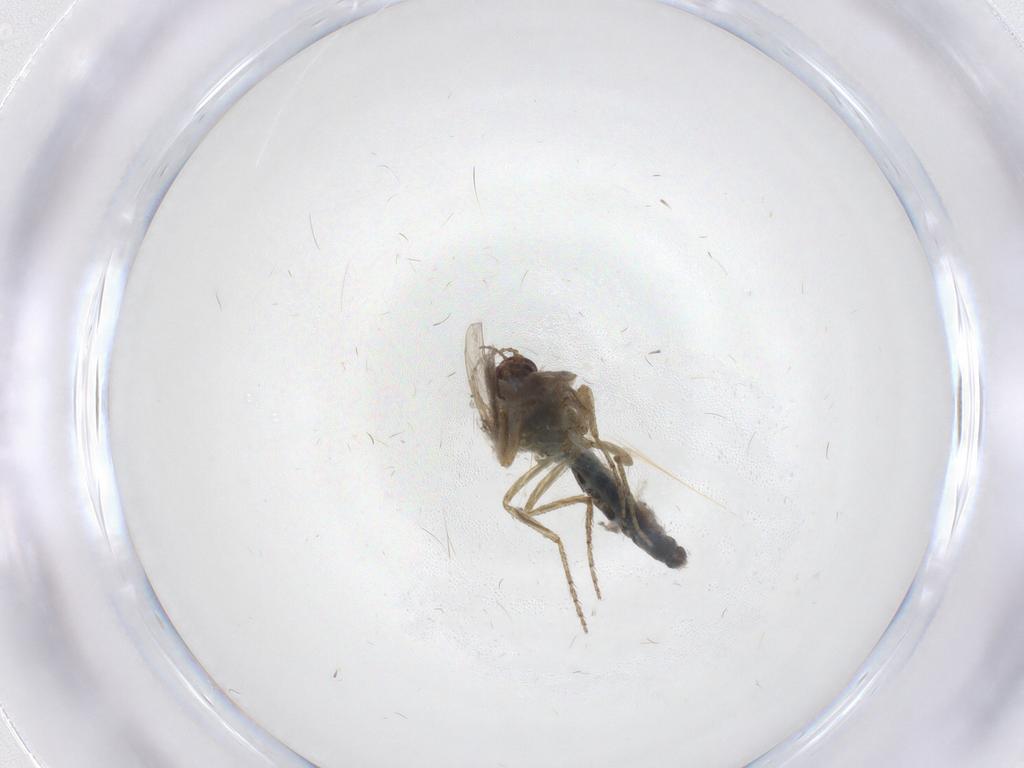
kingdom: Animalia
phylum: Arthropoda
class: Insecta
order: Diptera
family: Ceratopogonidae
